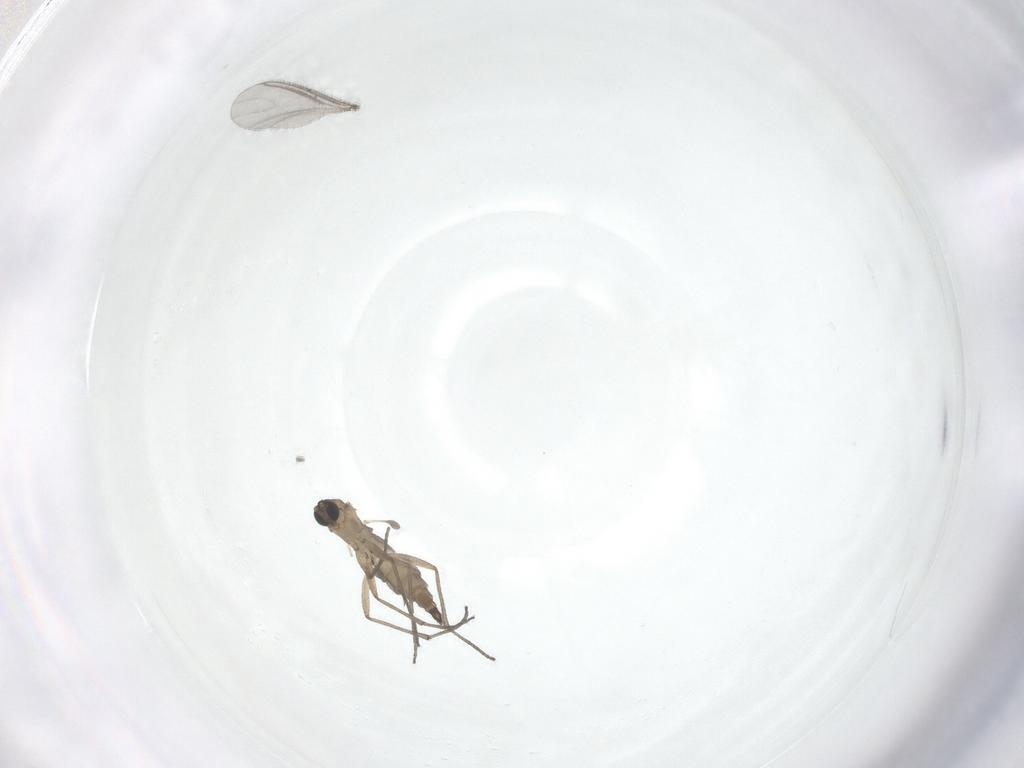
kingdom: Animalia
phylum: Arthropoda
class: Insecta
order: Diptera
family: Sciaridae
